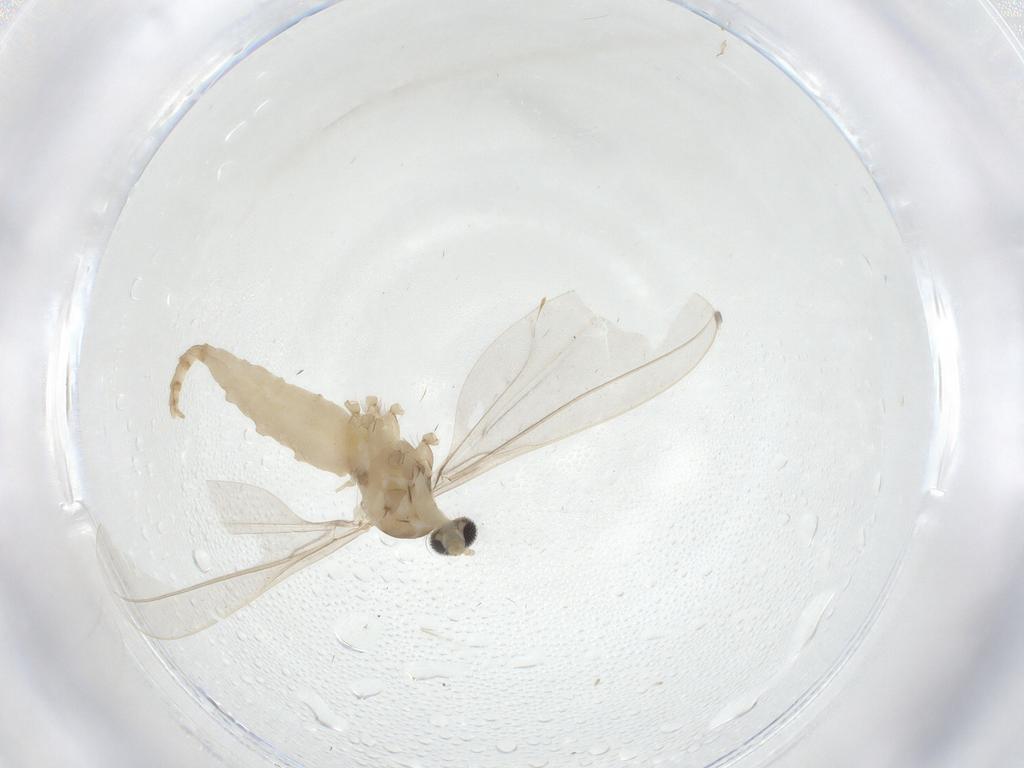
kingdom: Animalia
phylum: Arthropoda
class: Insecta
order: Diptera
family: Cecidomyiidae
